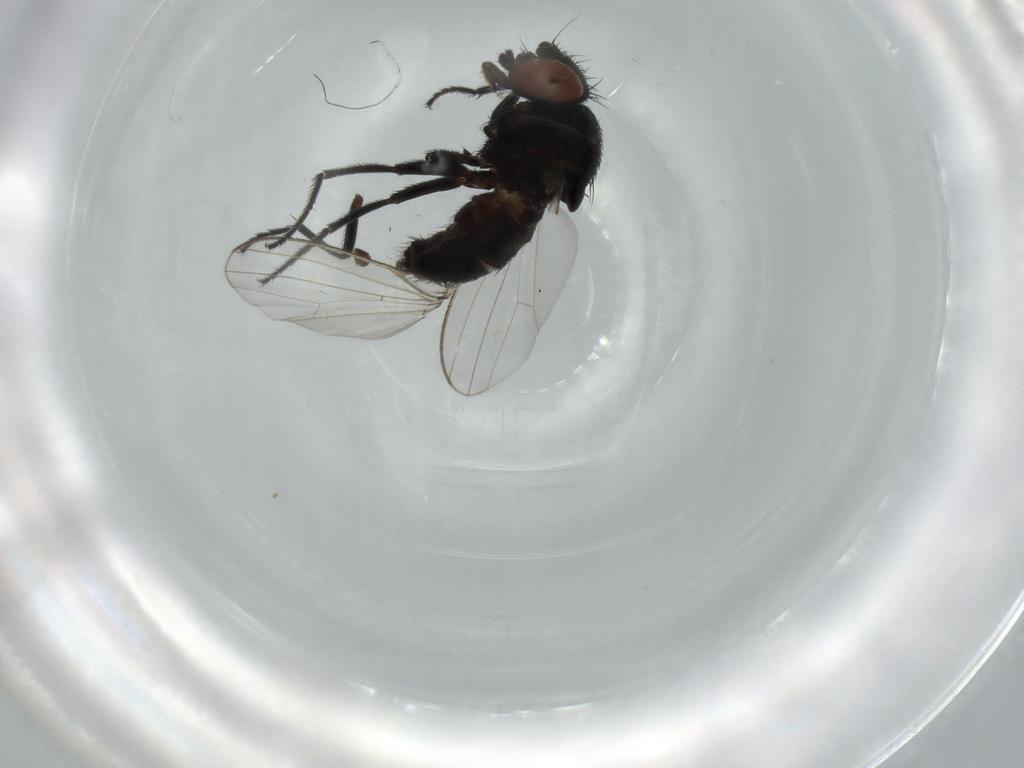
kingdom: Animalia
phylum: Arthropoda
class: Insecta
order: Diptera
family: Milichiidae
